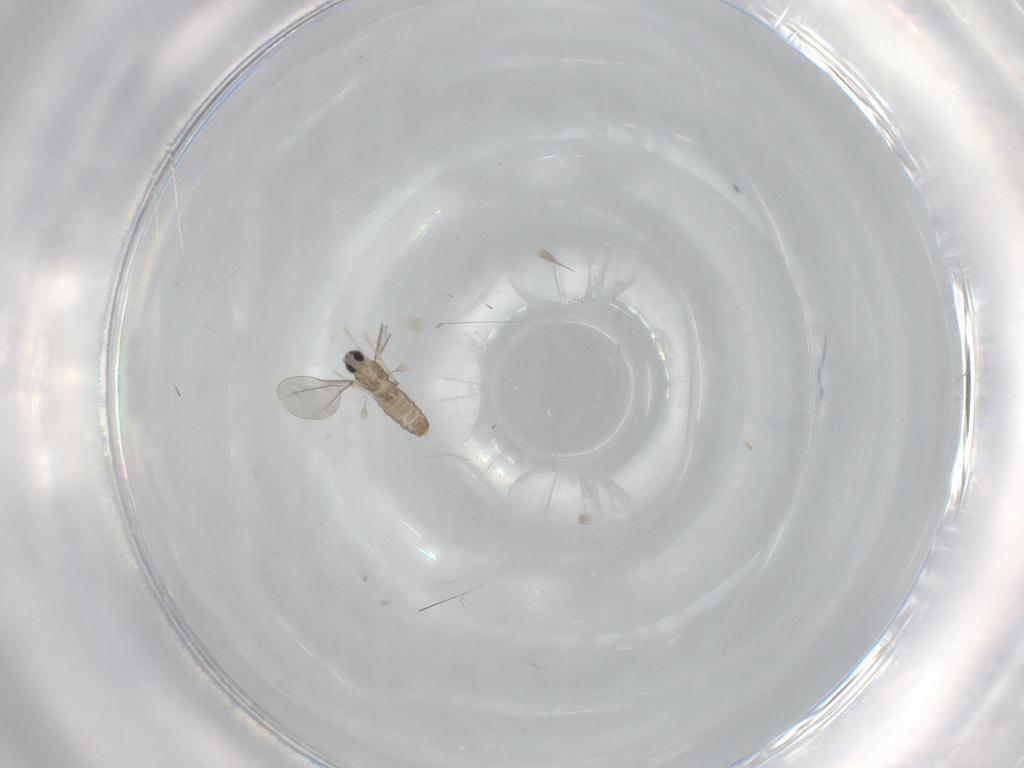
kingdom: Animalia
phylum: Arthropoda
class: Insecta
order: Diptera
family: Cecidomyiidae
